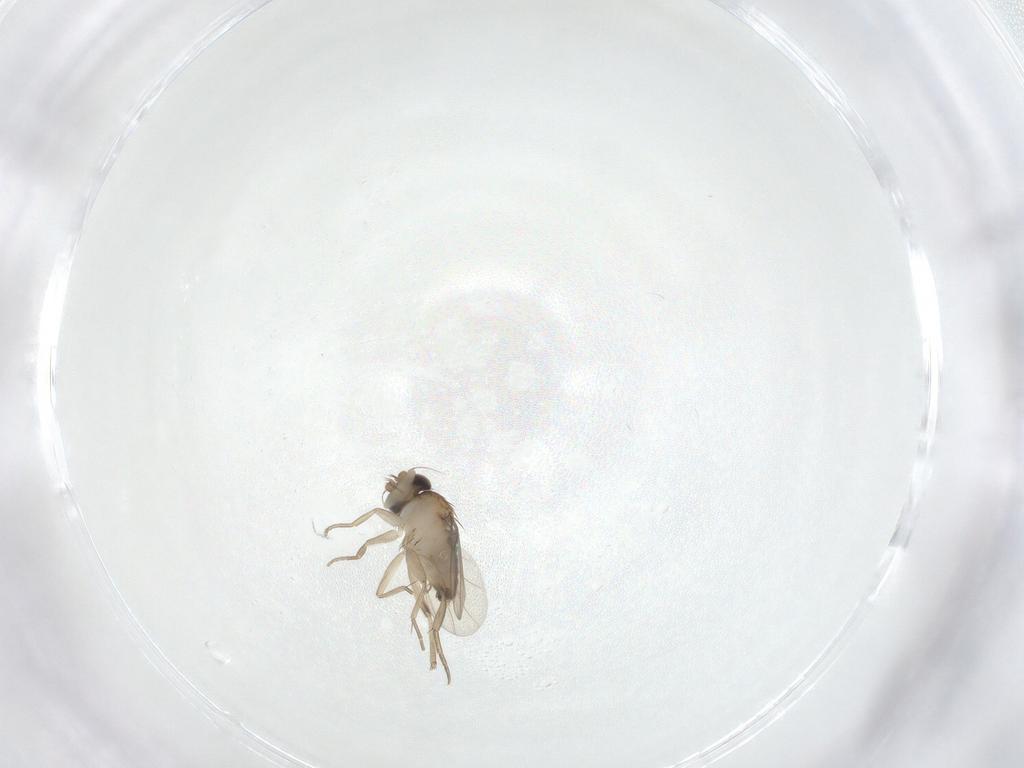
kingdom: Animalia
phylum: Arthropoda
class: Insecta
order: Diptera
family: Phoridae
